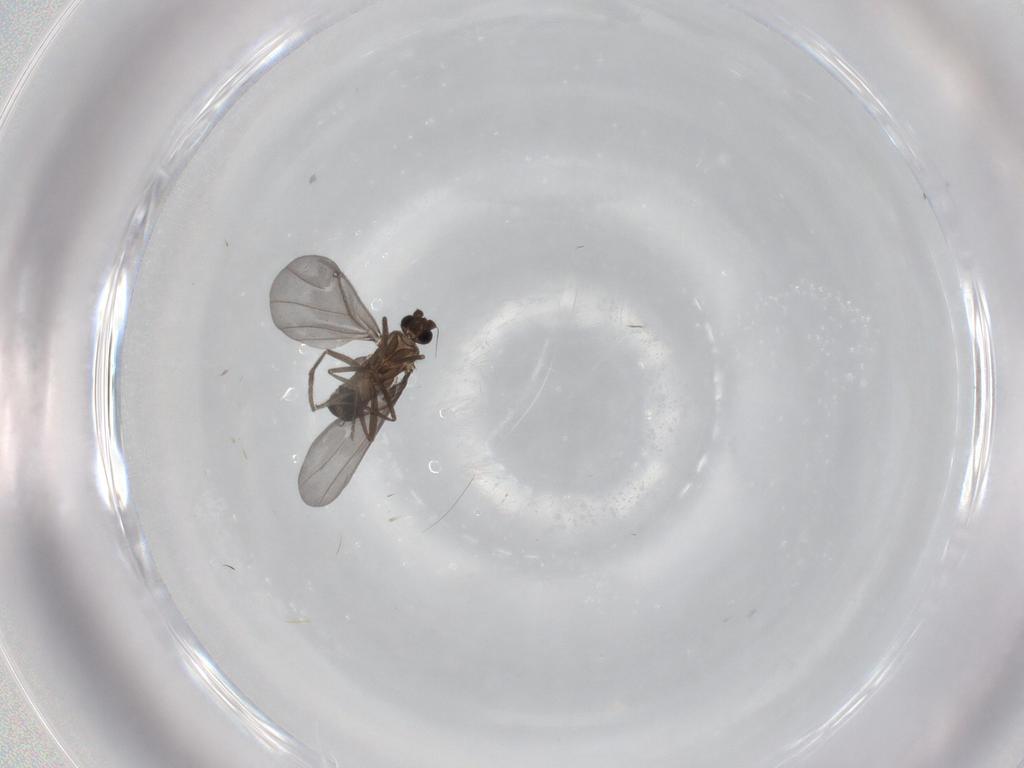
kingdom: Animalia
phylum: Arthropoda
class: Insecta
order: Diptera
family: Phoridae
